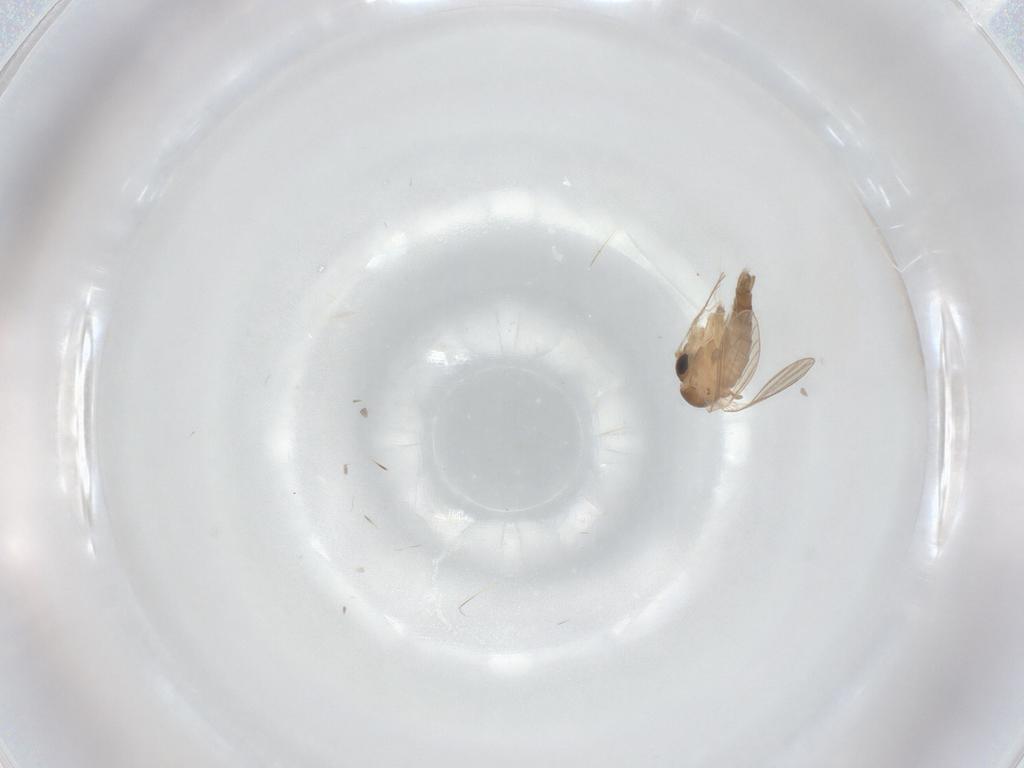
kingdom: Animalia
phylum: Arthropoda
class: Insecta
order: Diptera
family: Psychodidae
